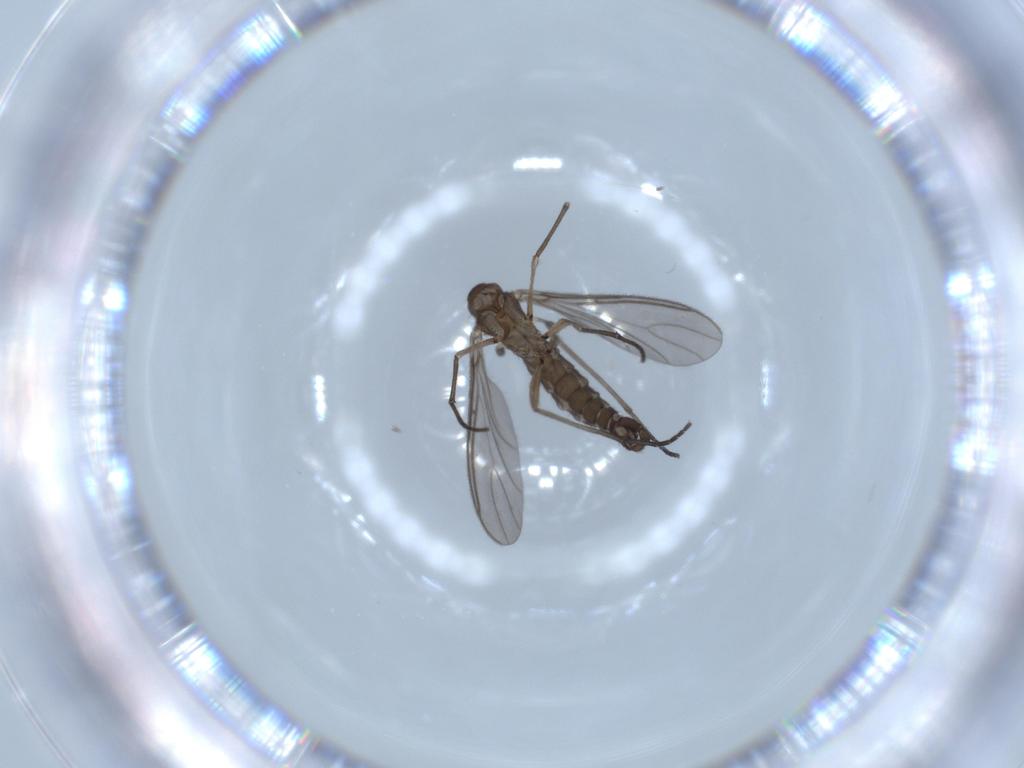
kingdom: Animalia
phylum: Arthropoda
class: Insecta
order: Diptera
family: Sciaridae
